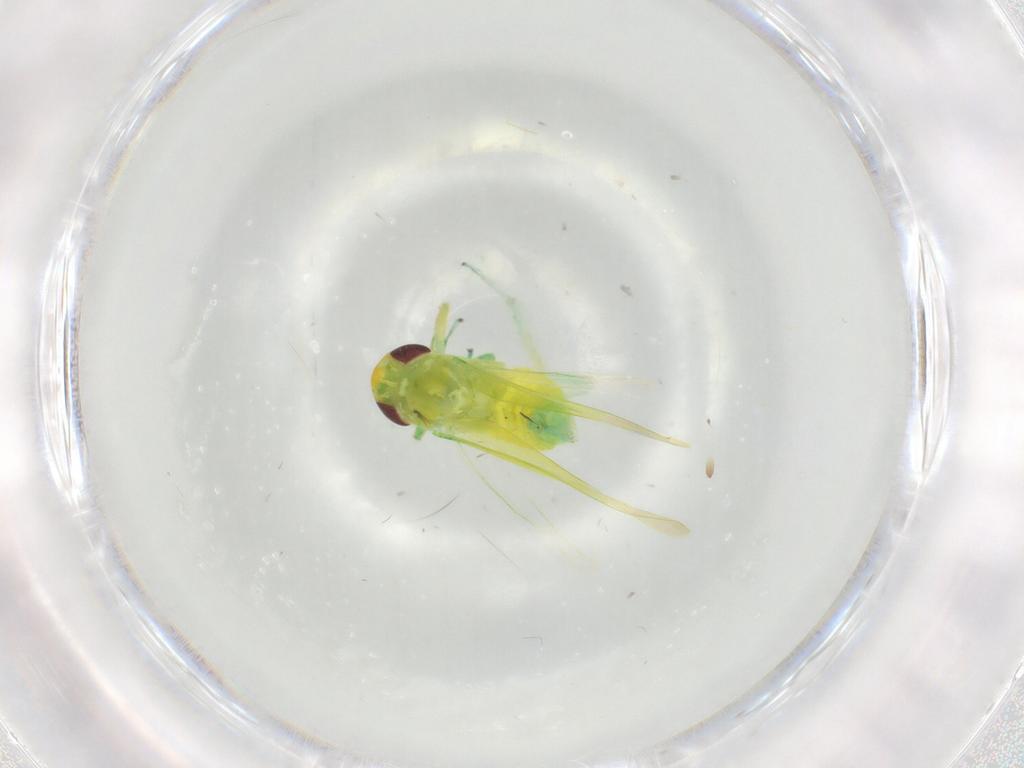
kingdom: Animalia
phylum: Arthropoda
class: Insecta
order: Hemiptera
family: Cicadellidae
